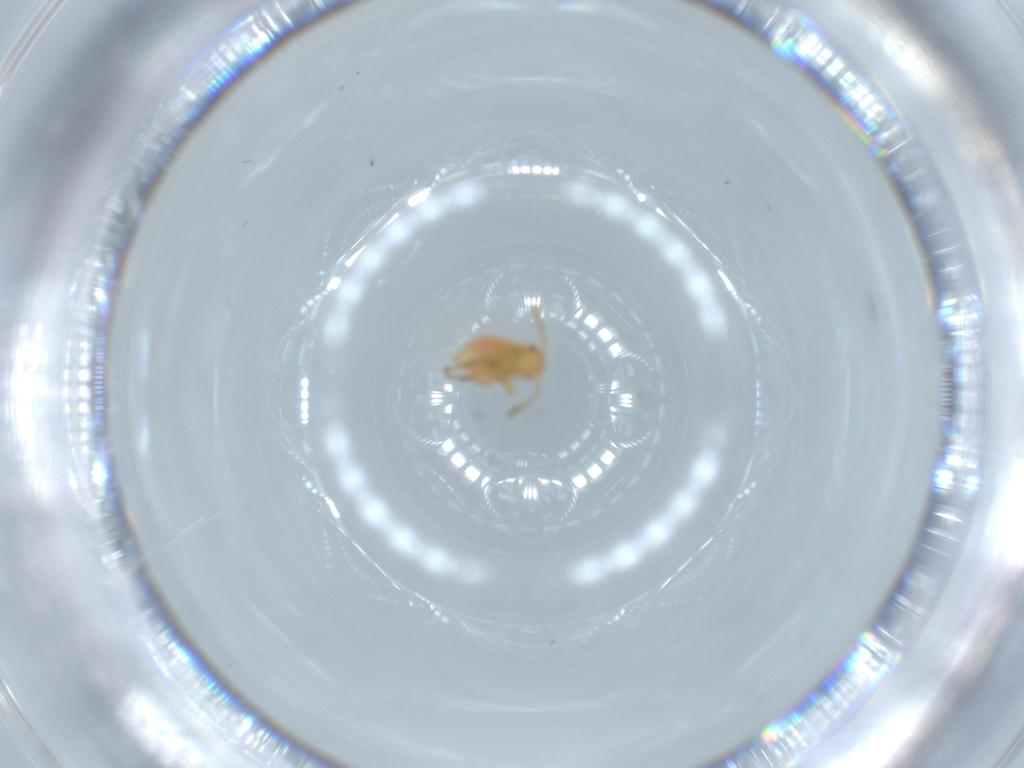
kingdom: Animalia
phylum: Arthropoda
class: Insecta
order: Hemiptera
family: Miridae
